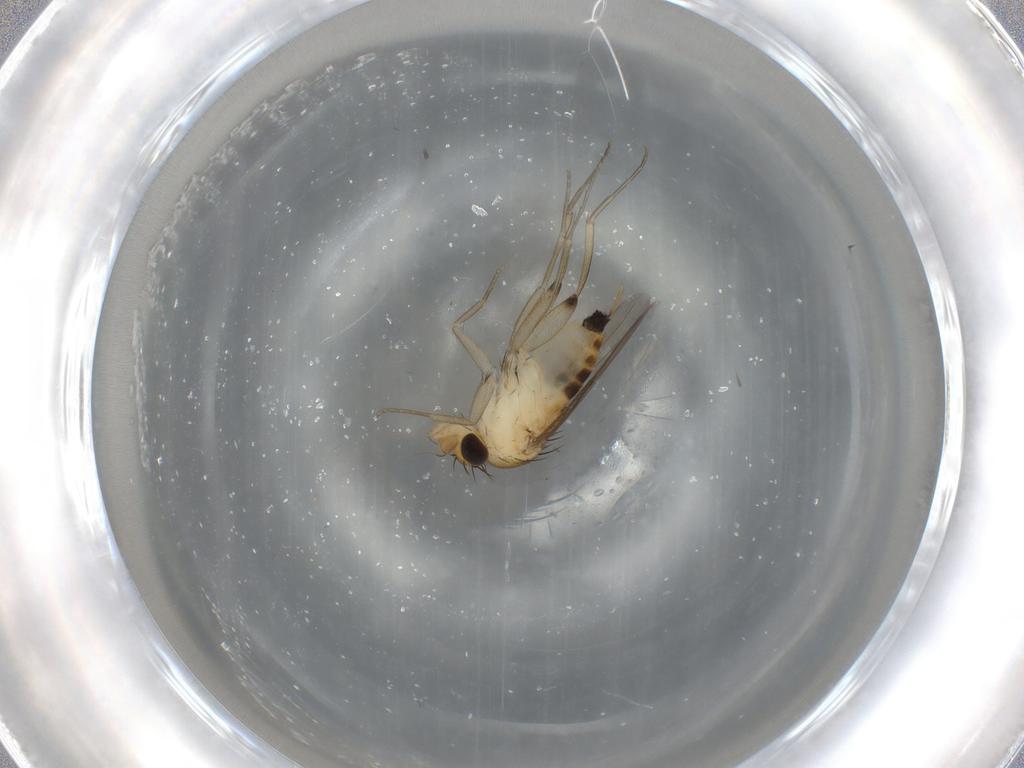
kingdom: Animalia
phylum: Arthropoda
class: Insecta
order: Diptera
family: Phoridae
